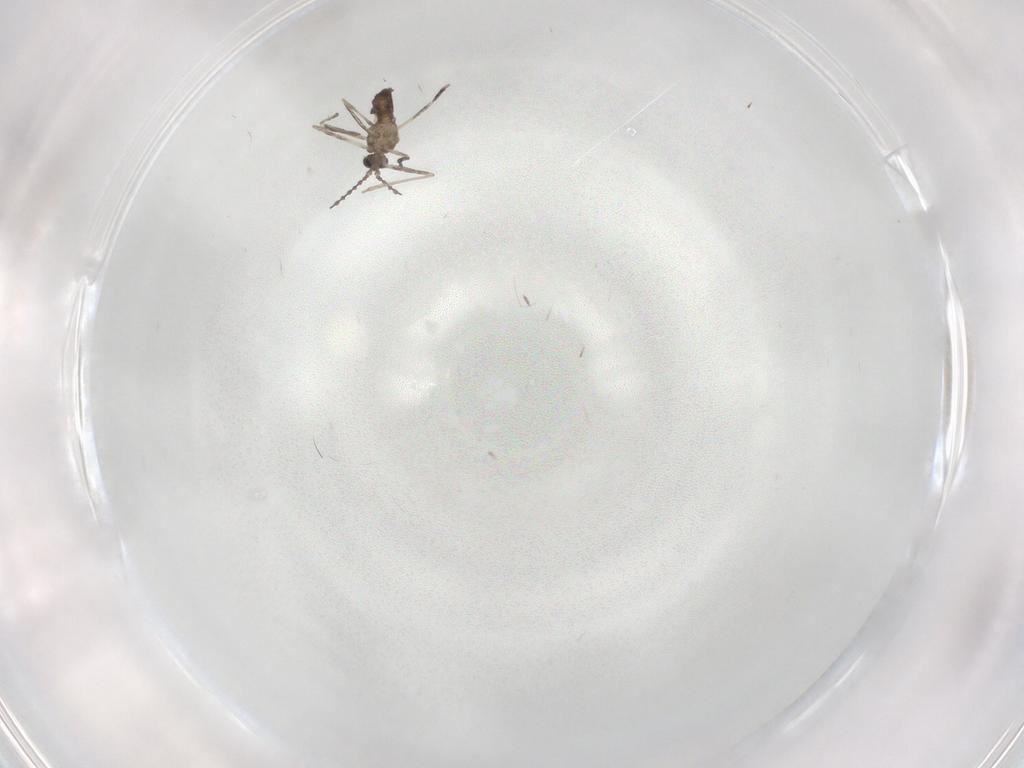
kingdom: Animalia
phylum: Arthropoda
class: Insecta
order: Diptera
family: Cecidomyiidae
